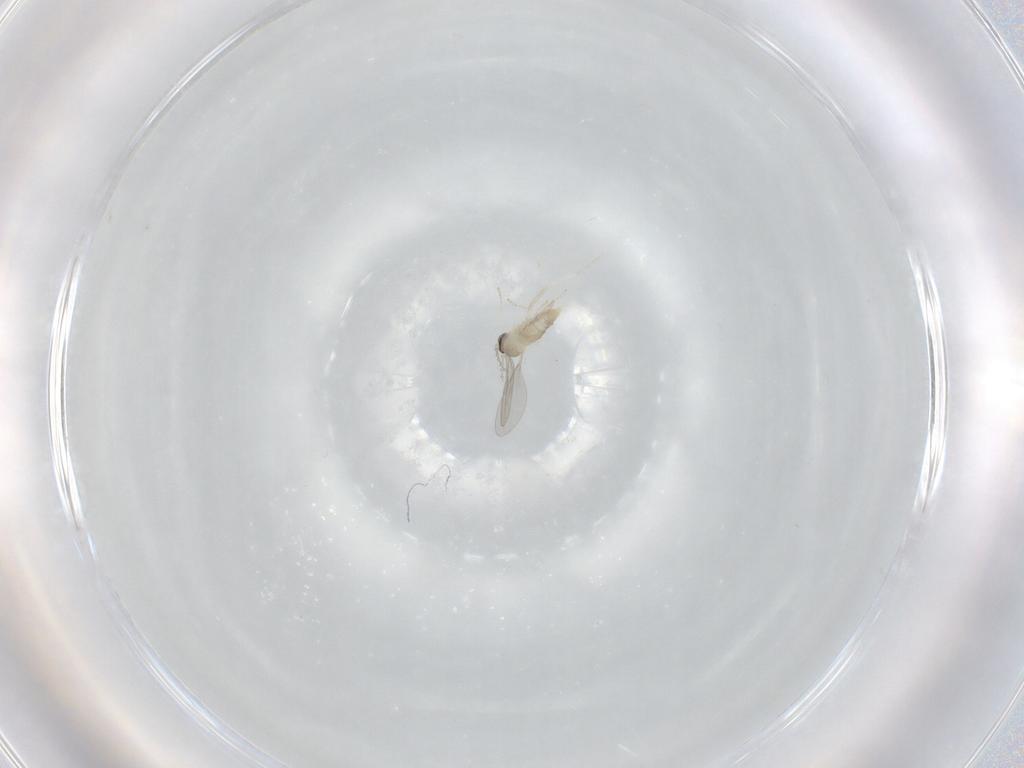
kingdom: Animalia
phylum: Arthropoda
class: Insecta
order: Diptera
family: Cecidomyiidae
